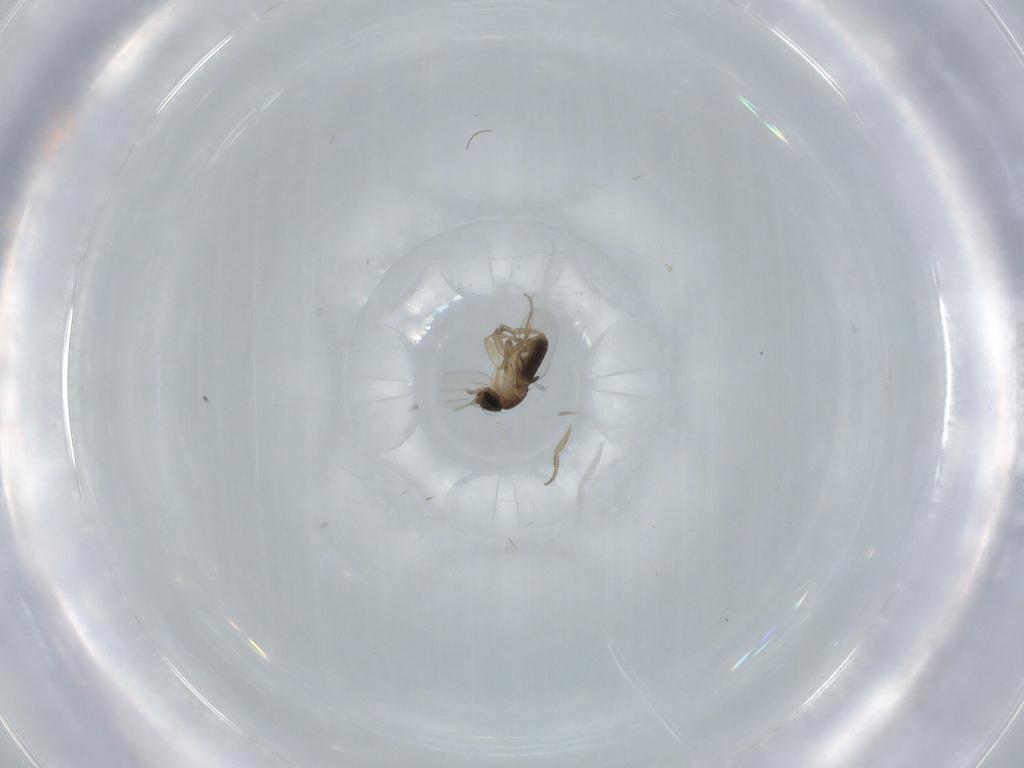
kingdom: Animalia
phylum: Arthropoda
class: Insecta
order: Diptera
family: Phoridae
